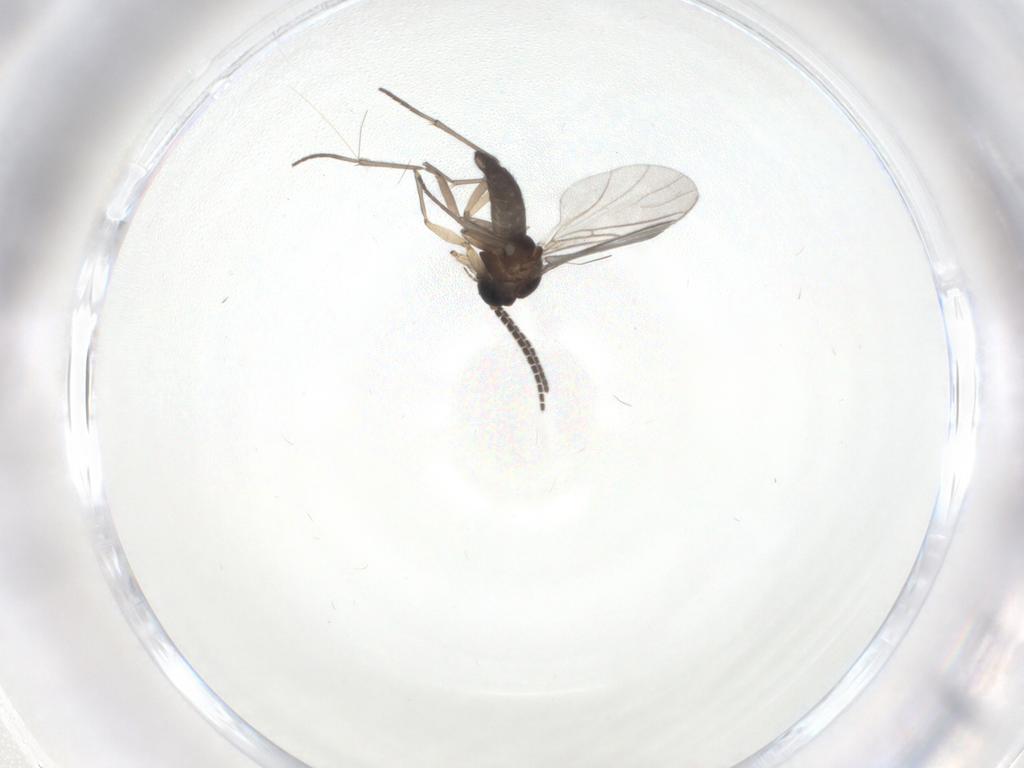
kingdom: Animalia
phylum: Arthropoda
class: Insecta
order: Diptera
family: Sciaridae
